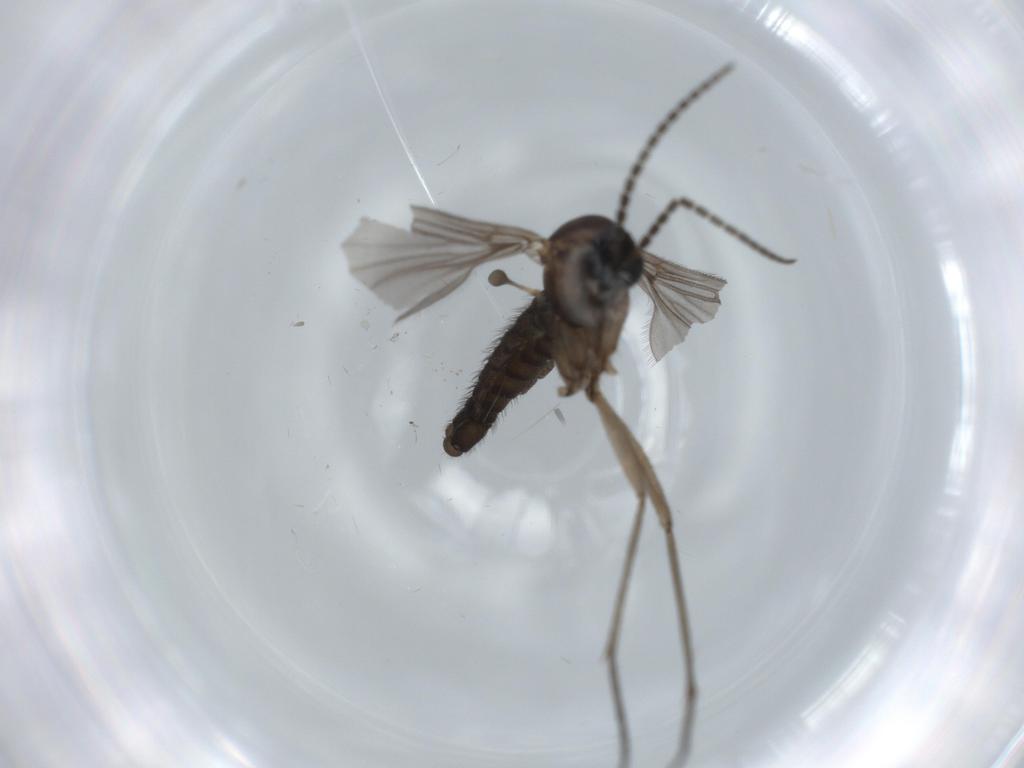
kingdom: Animalia
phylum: Arthropoda
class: Insecta
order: Diptera
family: Sciaridae
